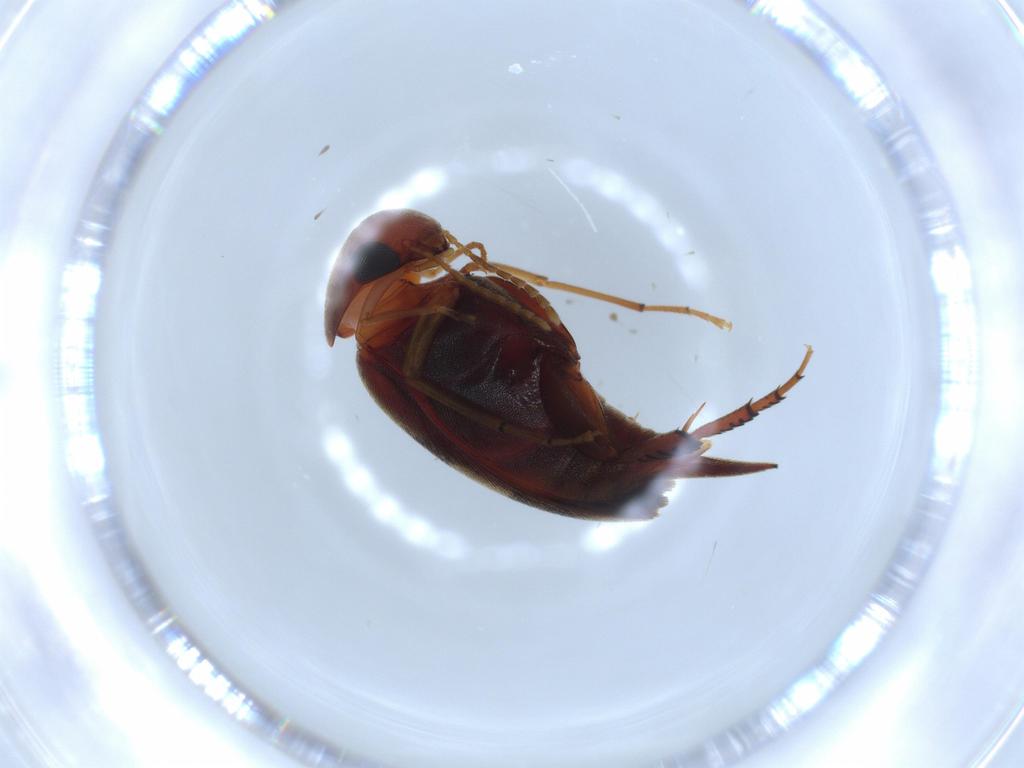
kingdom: Animalia
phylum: Arthropoda
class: Insecta
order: Coleoptera
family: Chrysomelidae
